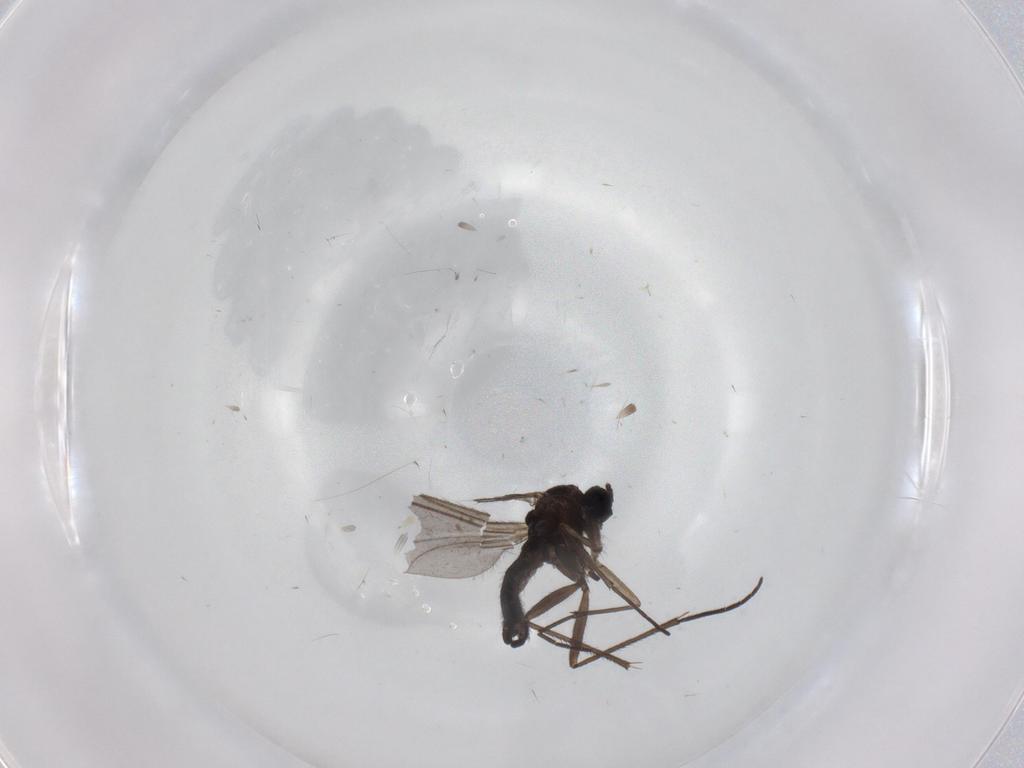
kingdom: Animalia
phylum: Arthropoda
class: Insecta
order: Diptera
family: Sciaridae
